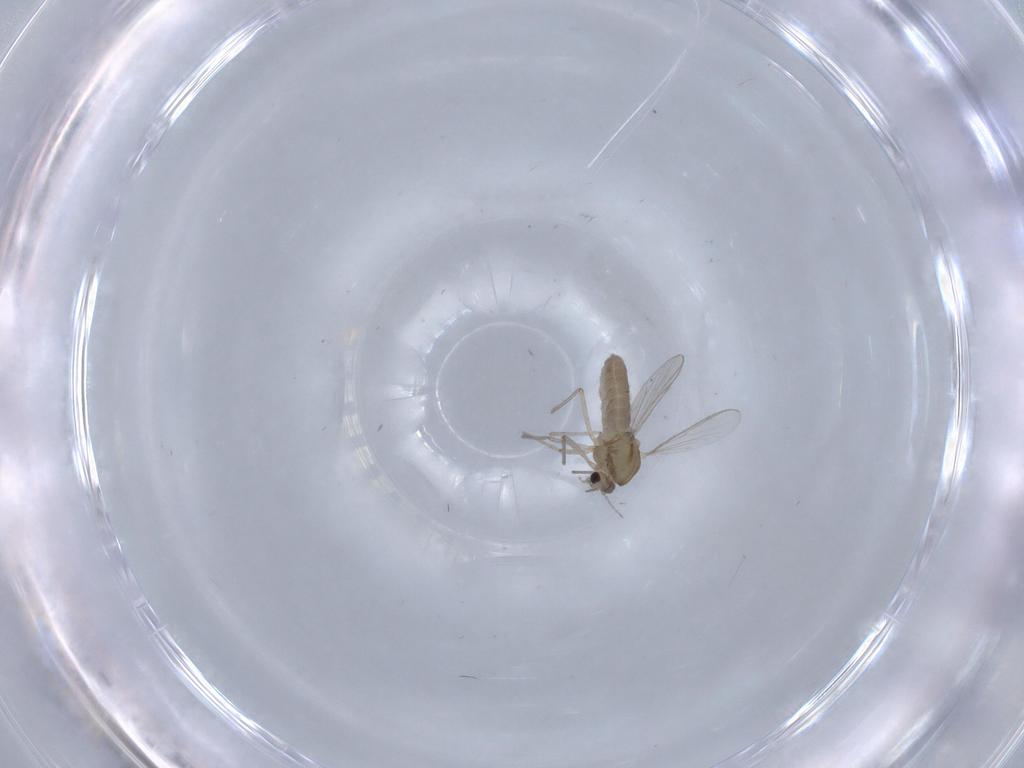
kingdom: Animalia
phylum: Arthropoda
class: Insecta
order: Diptera
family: Chironomidae
